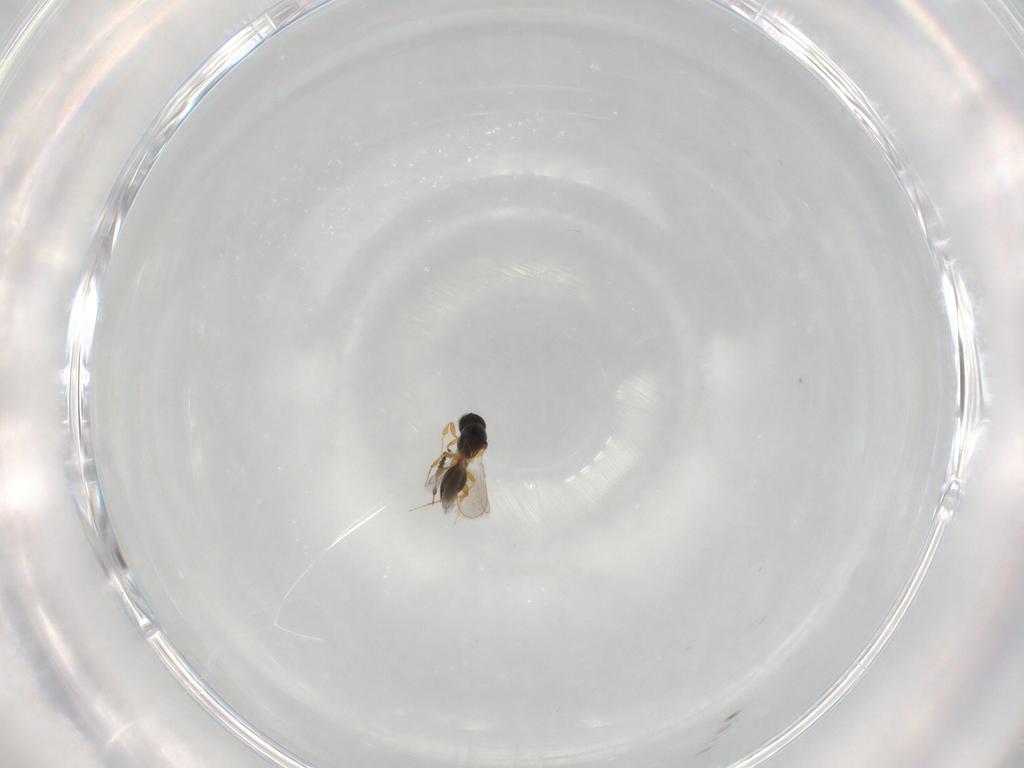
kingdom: Animalia
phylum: Arthropoda
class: Insecta
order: Hymenoptera
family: Figitidae
